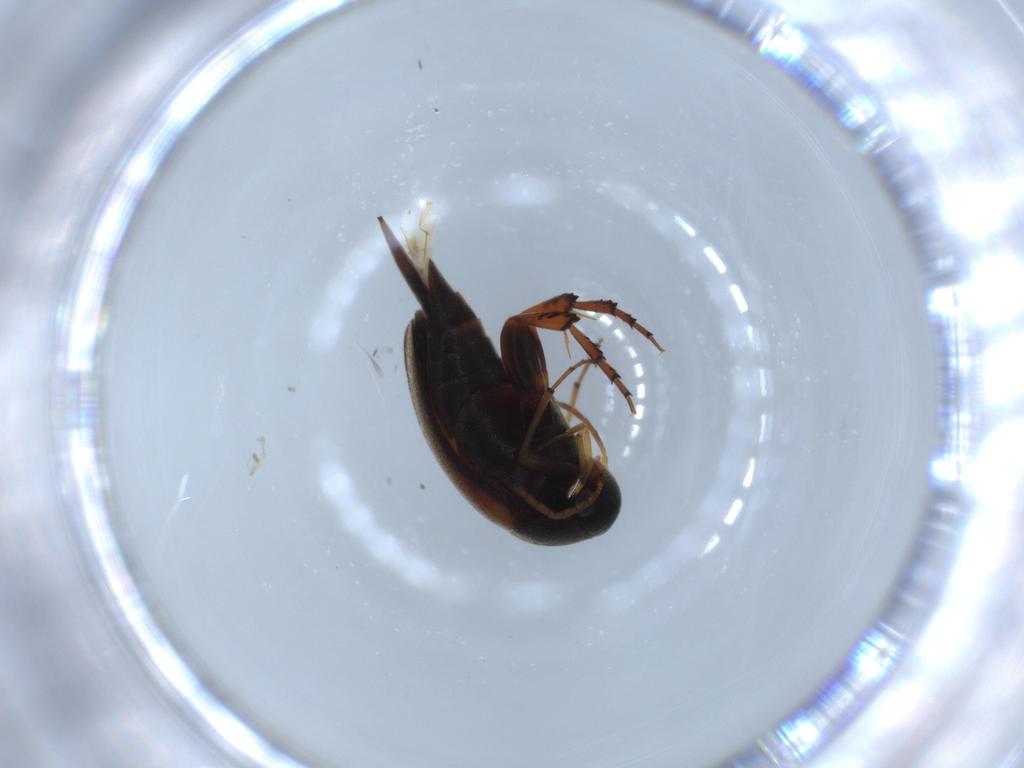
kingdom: Animalia
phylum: Arthropoda
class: Insecta
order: Coleoptera
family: Mordellidae
